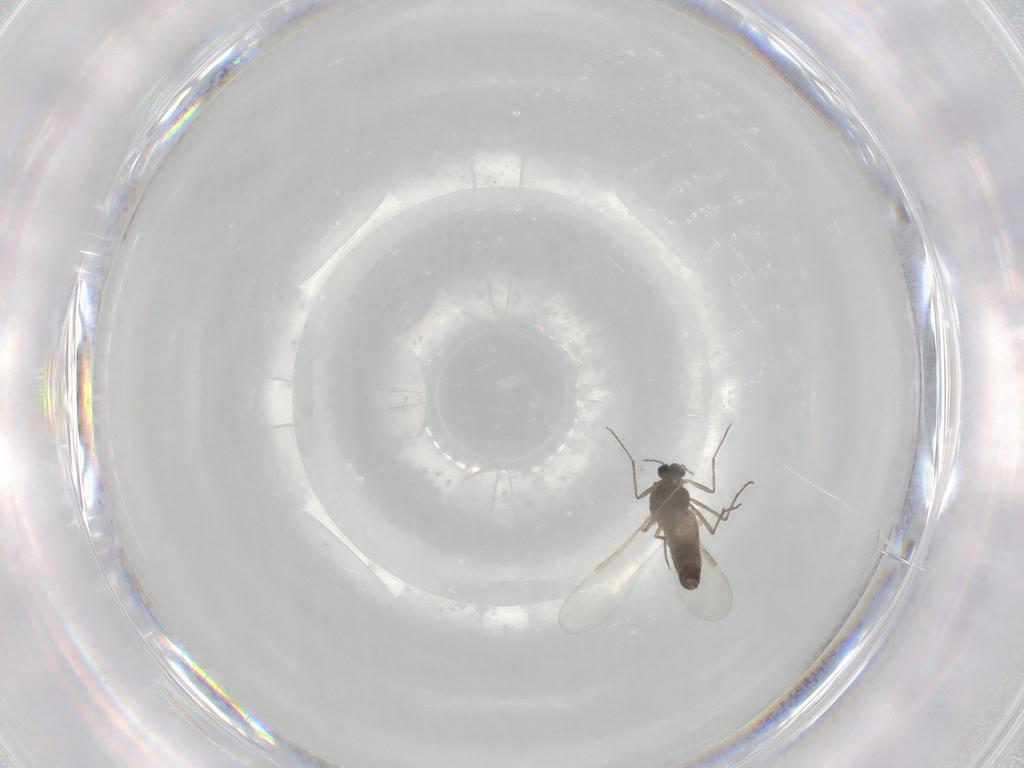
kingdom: Animalia
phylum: Arthropoda
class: Insecta
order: Diptera
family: Chironomidae
